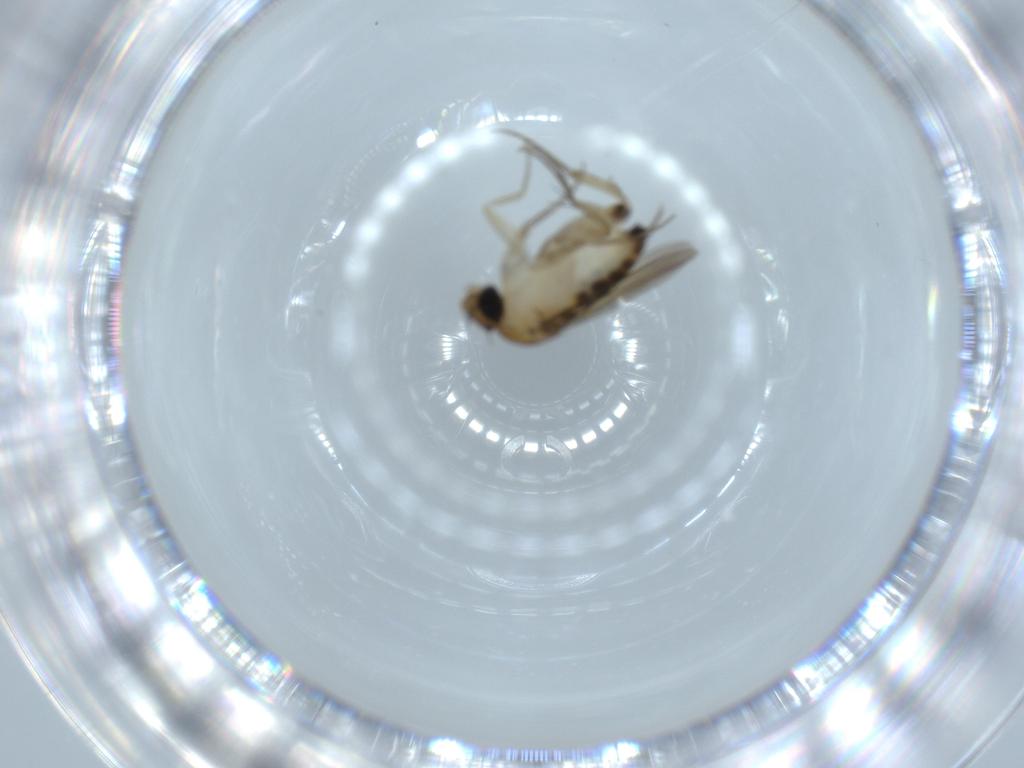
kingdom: Animalia
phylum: Arthropoda
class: Insecta
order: Diptera
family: Phoridae
